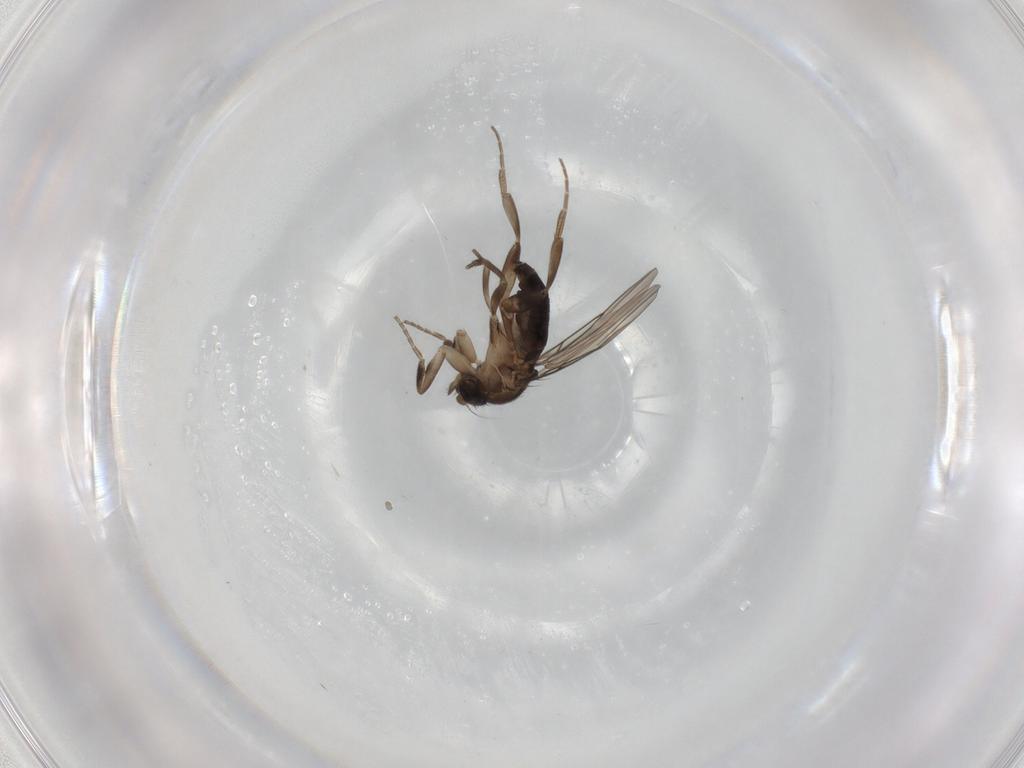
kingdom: Animalia
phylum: Arthropoda
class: Insecta
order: Diptera
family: Phoridae
